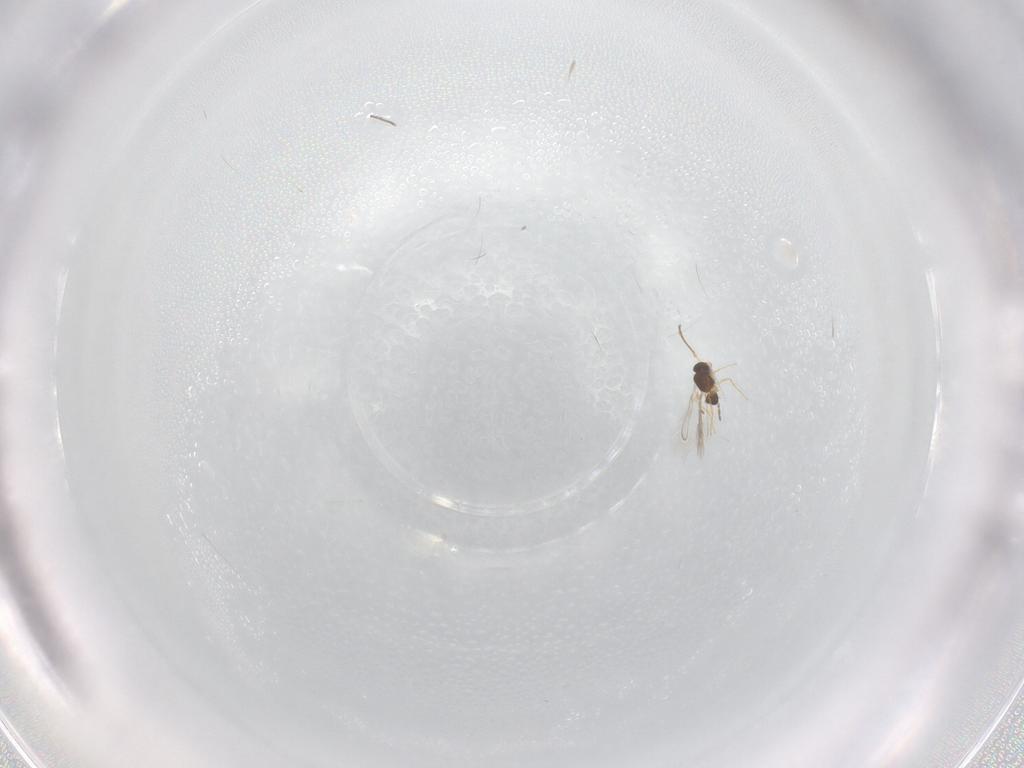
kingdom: Animalia
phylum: Arthropoda
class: Insecta
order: Hymenoptera
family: Mymaridae
